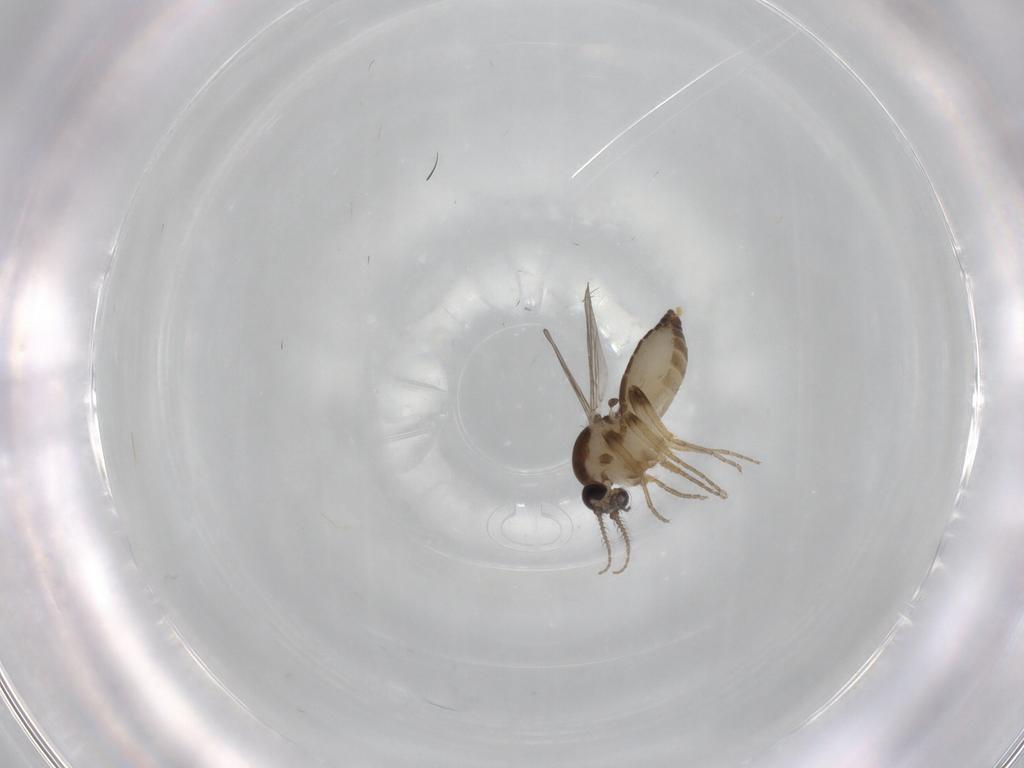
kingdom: Animalia
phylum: Arthropoda
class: Insecta
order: Diptera
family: Ceratopogonidae
